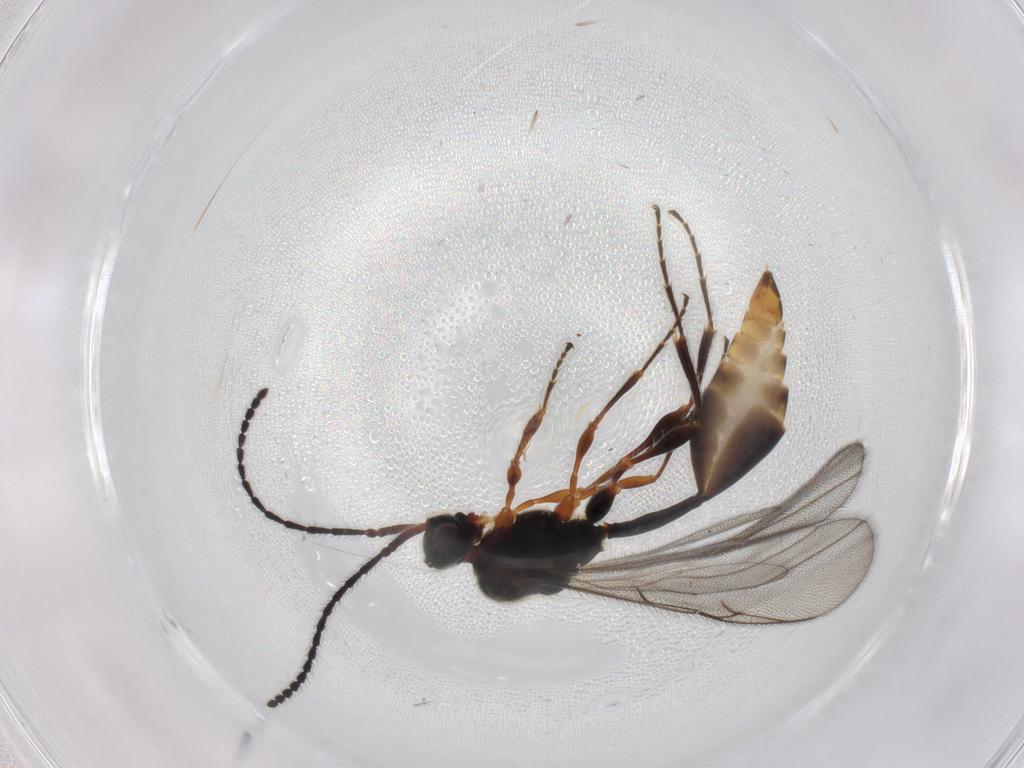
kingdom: Animalia
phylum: Arthropoda
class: Insecta
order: Hymenoptera
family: Diapriidae
